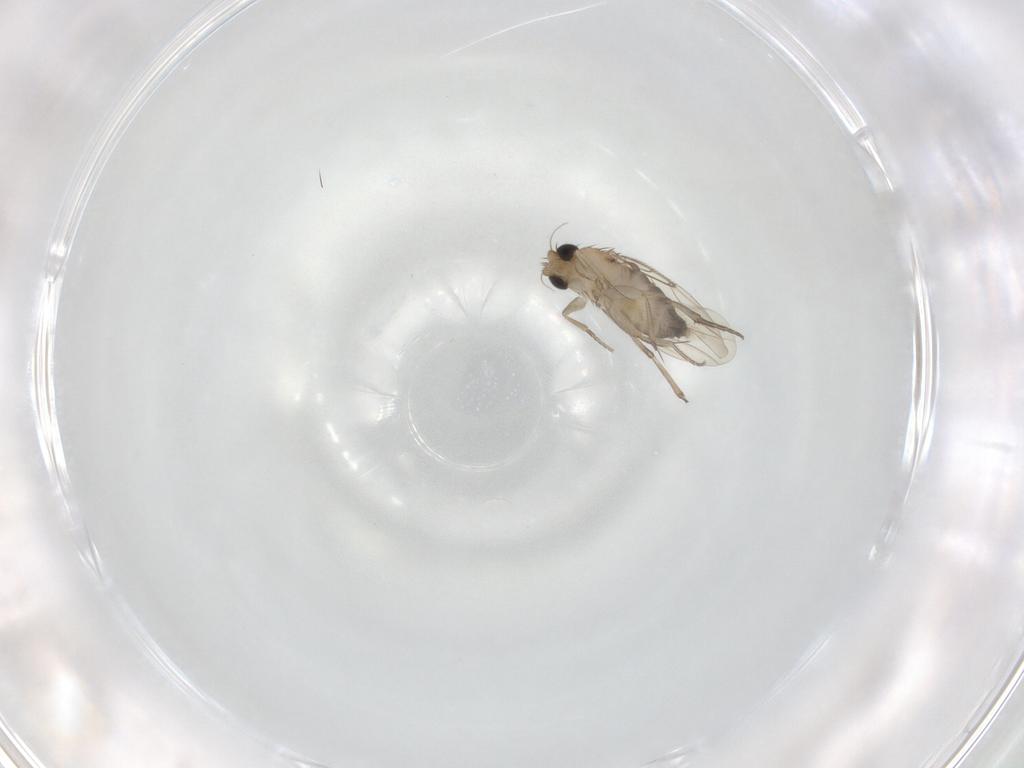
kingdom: Animalia
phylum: Arthropoda
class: Insecta
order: Diptera
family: Phoridae
